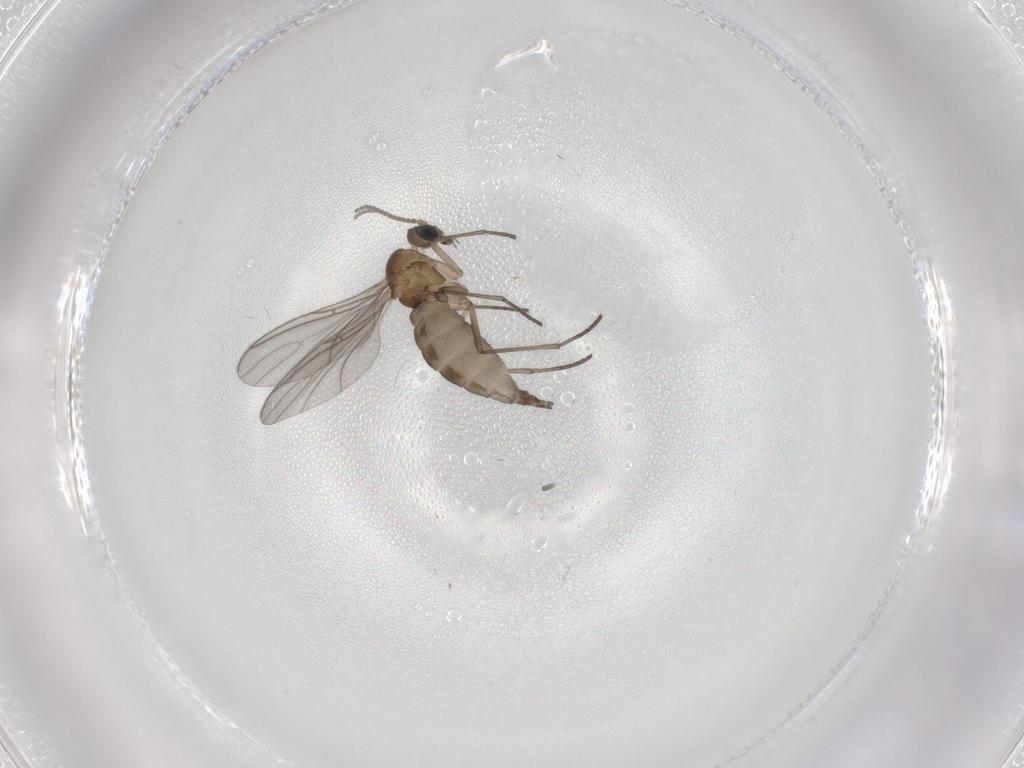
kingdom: Animalia
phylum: Arthropoda
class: Insecta
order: Diptera
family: Sciaridae
